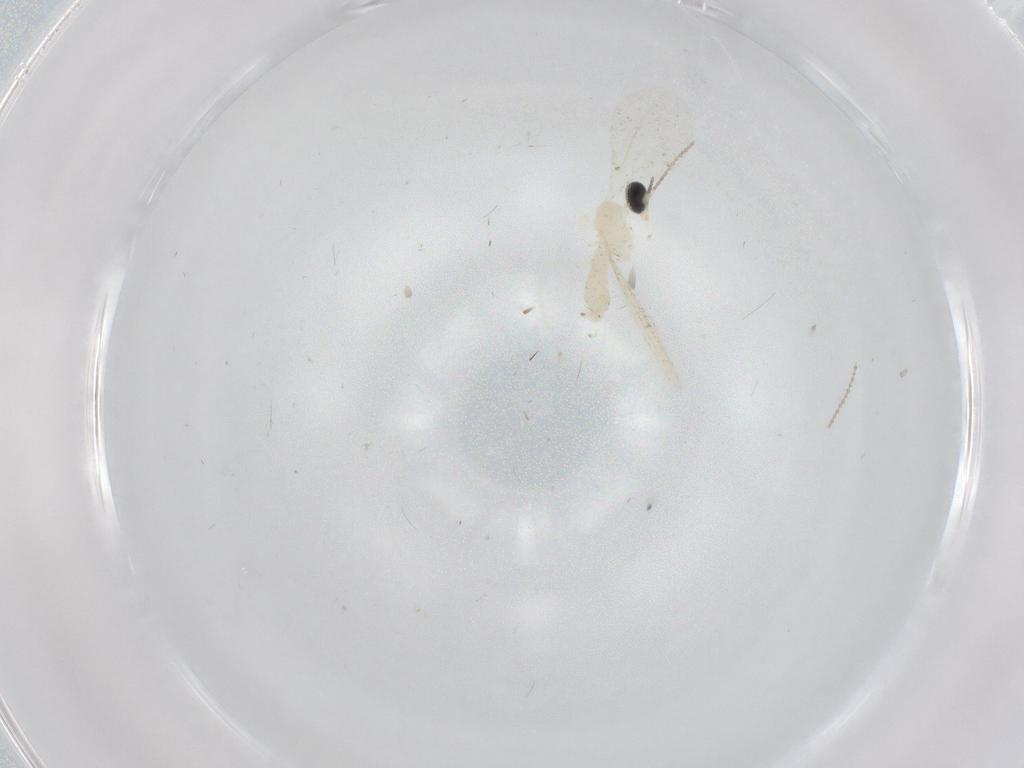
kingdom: Animalia
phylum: Arthropoda
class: Insecta
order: Diptera
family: Cecidomyiidae
